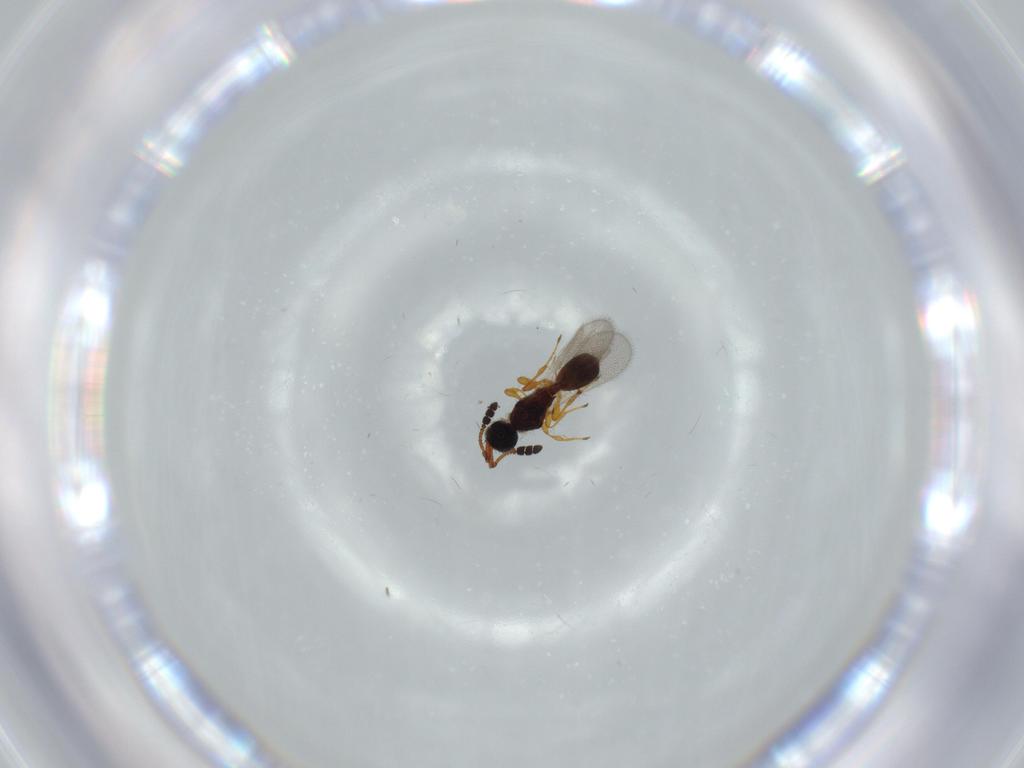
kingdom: Animalia
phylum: Arthropoda
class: Insecta
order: Hymenoptera
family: Diapriidae
